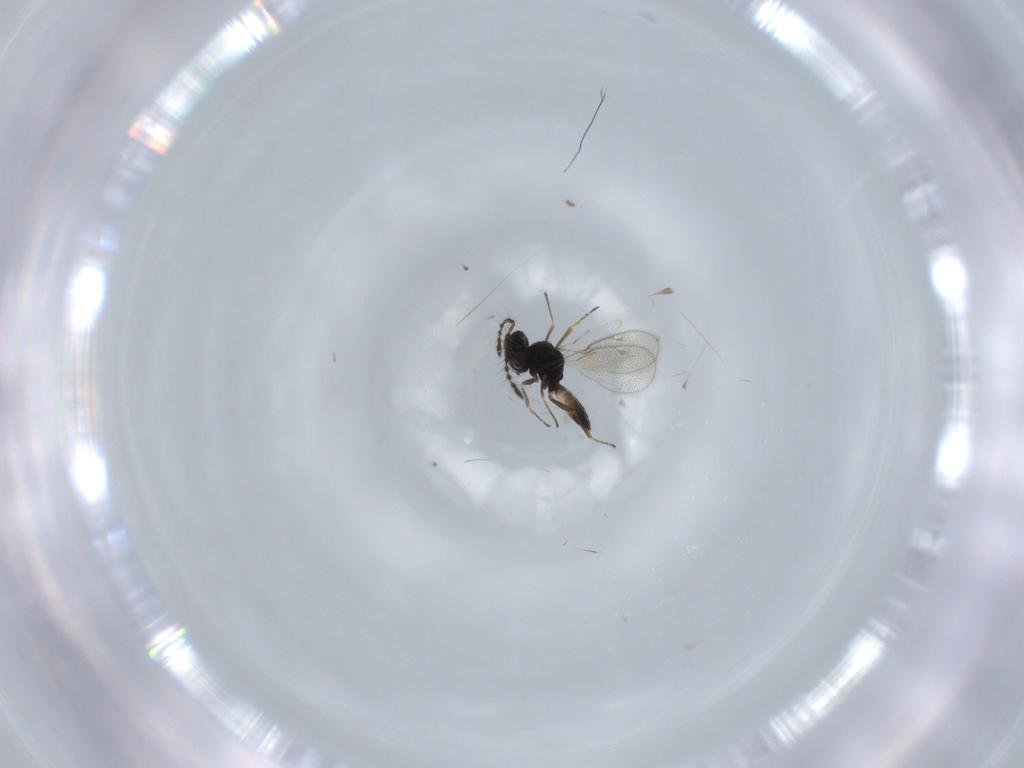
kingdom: Animalia
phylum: Arthropoda
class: Insecta
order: Hymenoptera
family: Pteromalidae
